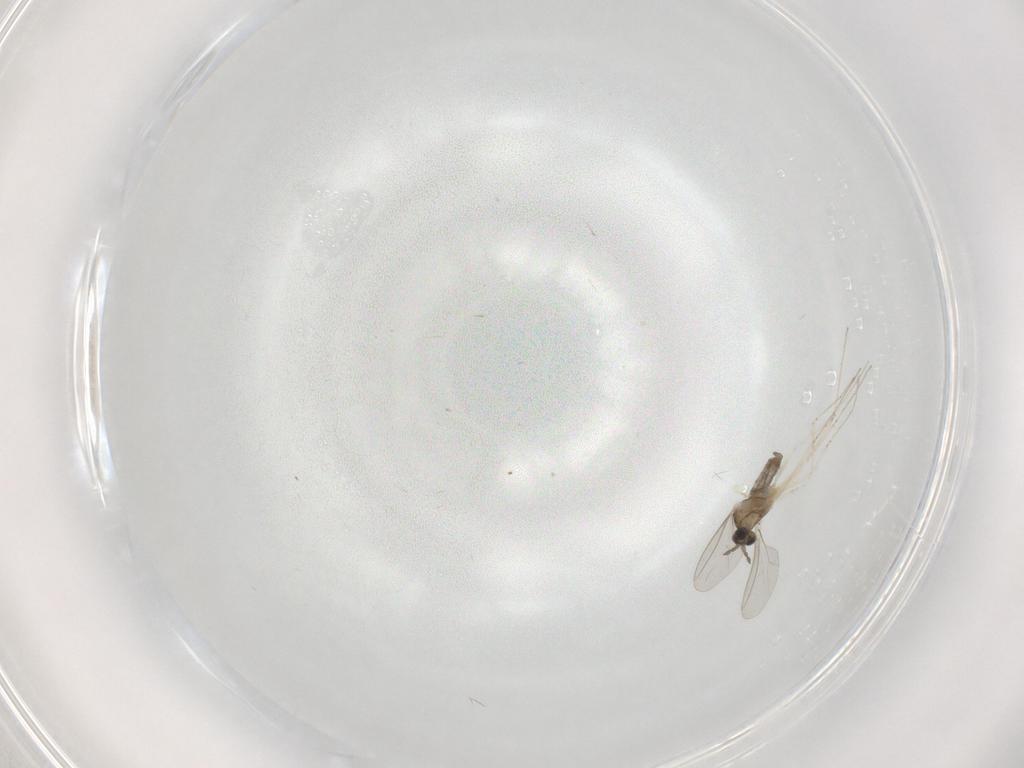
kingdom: Animalia
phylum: Arthropoda
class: Insecta
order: Diptera
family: Cecidomyiidae
